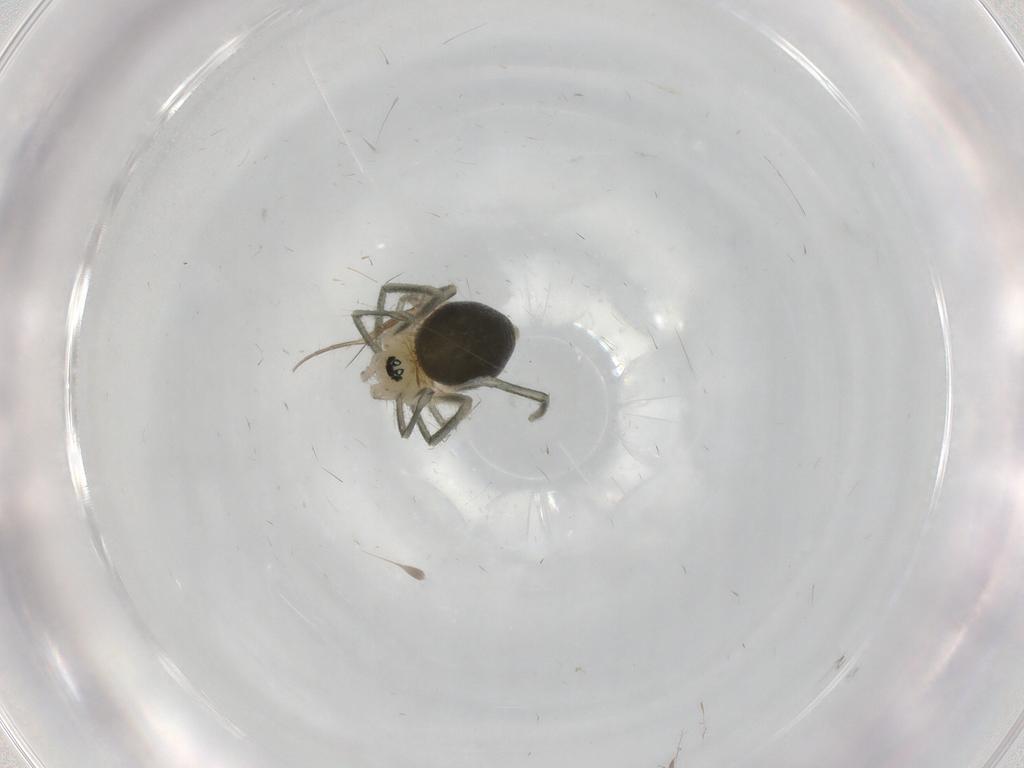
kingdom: Animalia
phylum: Arthropoda
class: Arachnida
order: Araneae
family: Linyphiidae
